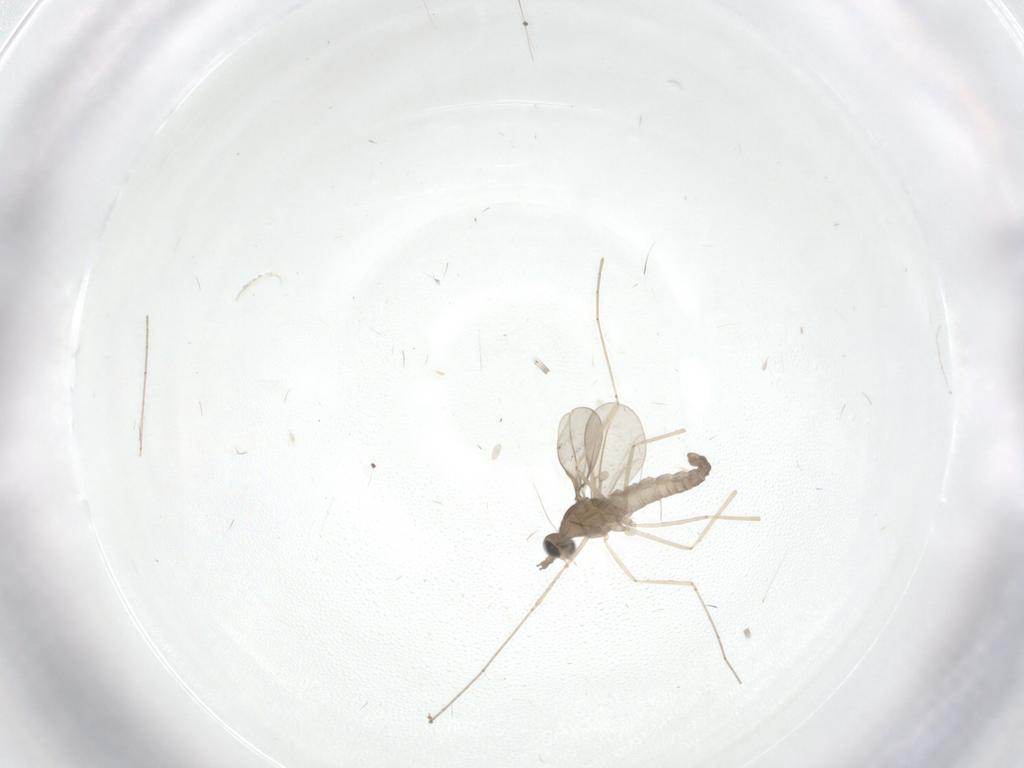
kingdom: Animalia
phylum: Arthropoda
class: Insecta
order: Diptera
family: Cecidomyiidae
